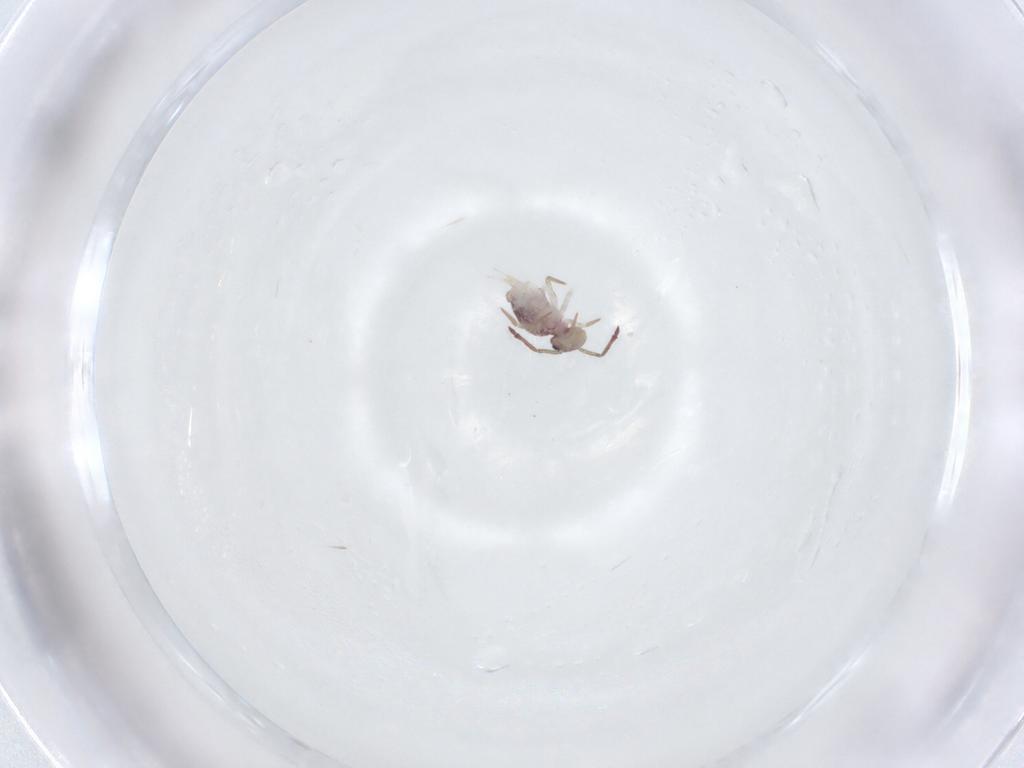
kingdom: Animalia
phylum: Arthropoda
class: Collembola
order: Symphypleona
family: Dicyrtomidae
